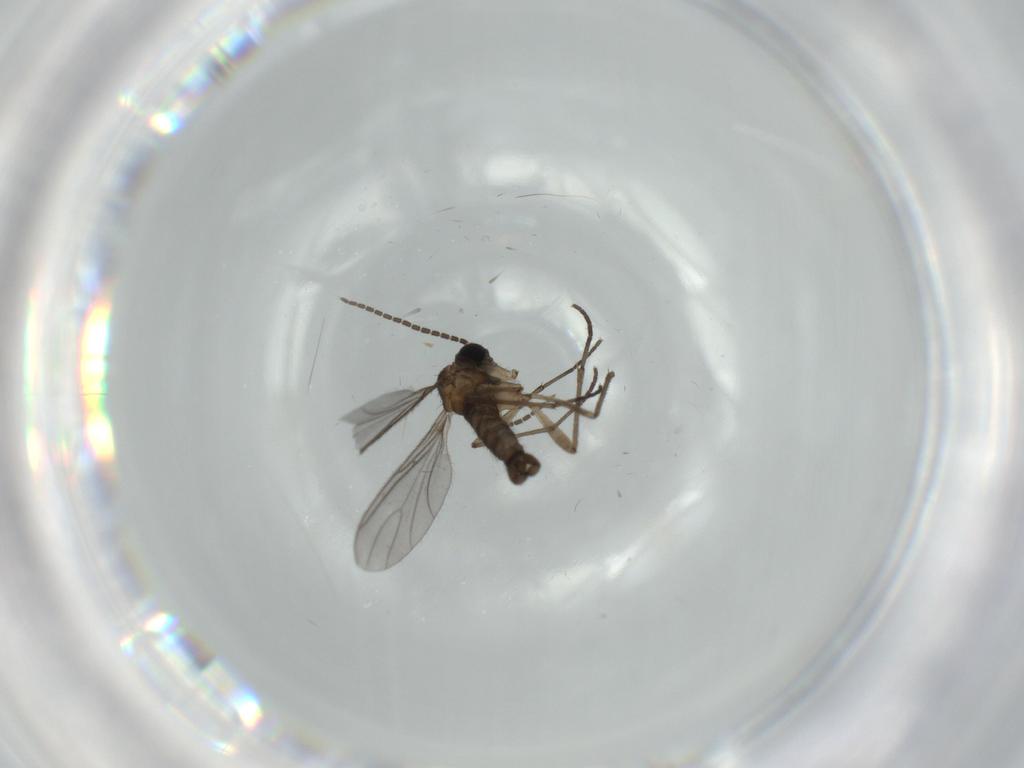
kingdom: Animalia
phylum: Arthropoda
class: Insecta
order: Diptera
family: Sciaridae
